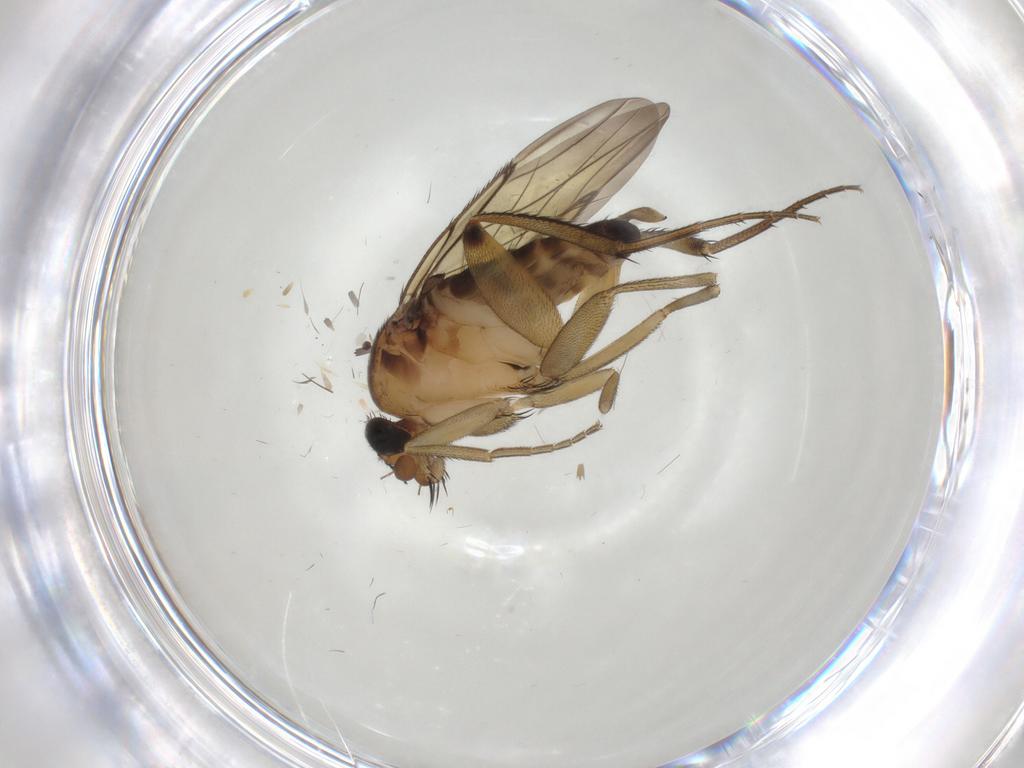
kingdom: Animalia
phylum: Arthropoda
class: Insecta
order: Diptera
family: Phoridae
